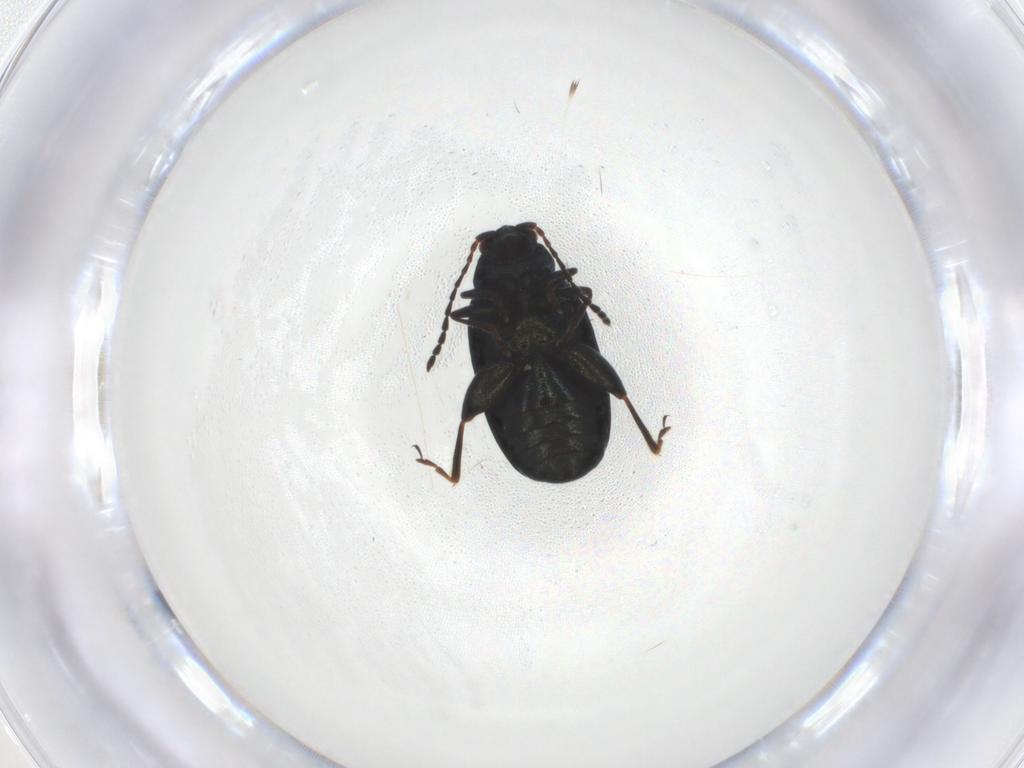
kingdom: Animalia
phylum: Arthropoda
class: Insecta
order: Coleoptera
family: Chrysomelidae
